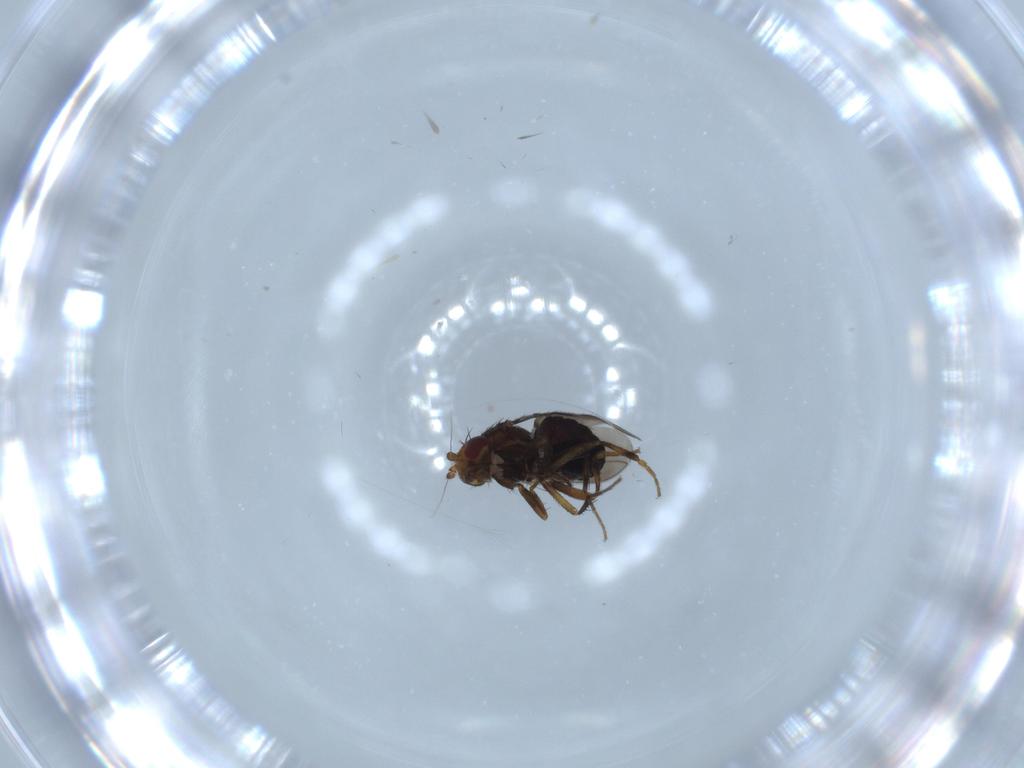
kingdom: Animalia
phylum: Arthropoda
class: Insecta
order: Diptera
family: Sphaeroceridae
